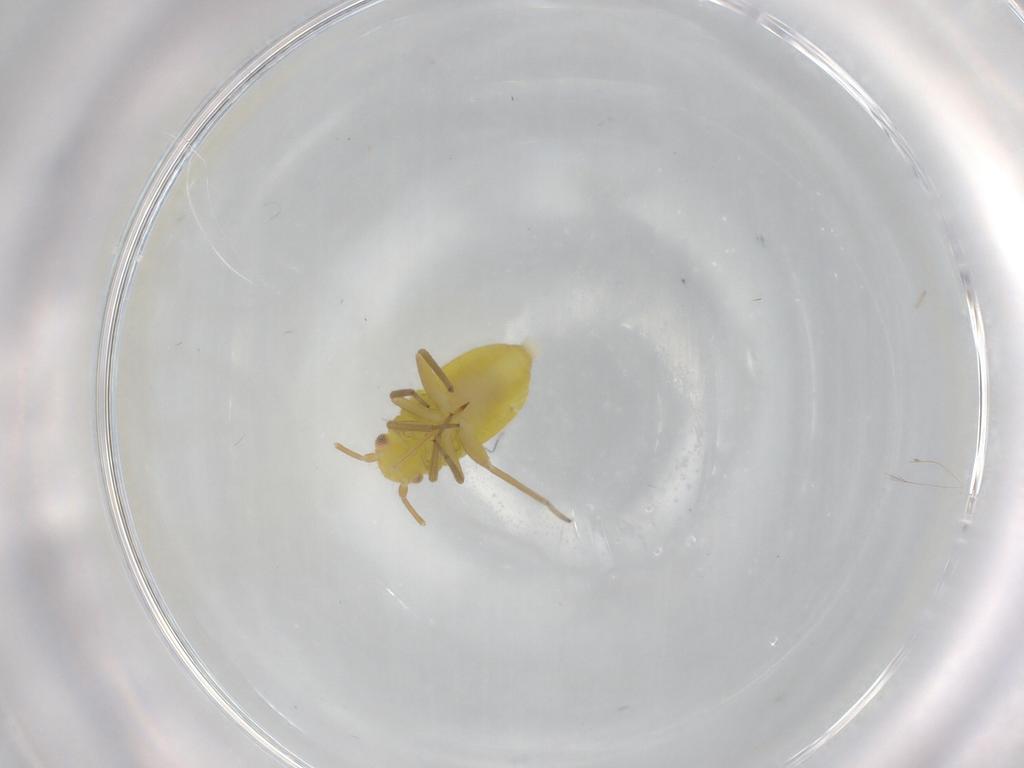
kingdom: Animalia
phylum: Arthropoda
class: Insecta
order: Hemiptera
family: Miridae
